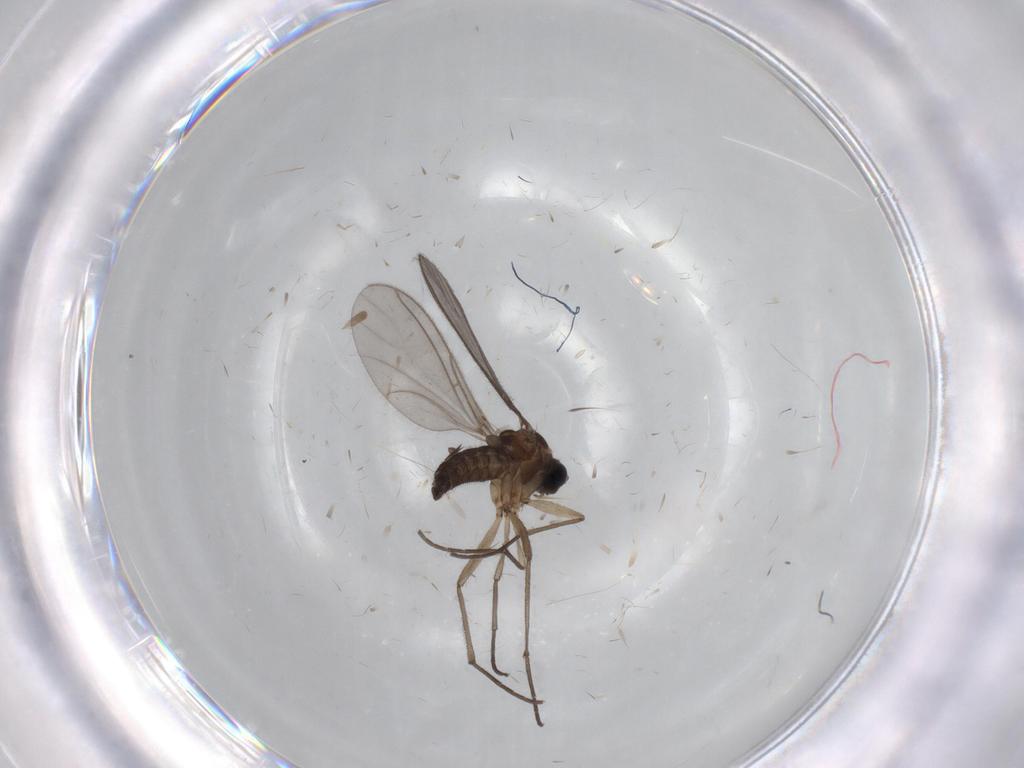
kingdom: Animalia
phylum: Arthropoda
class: Insecta
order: Diptera
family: Sciaridae
